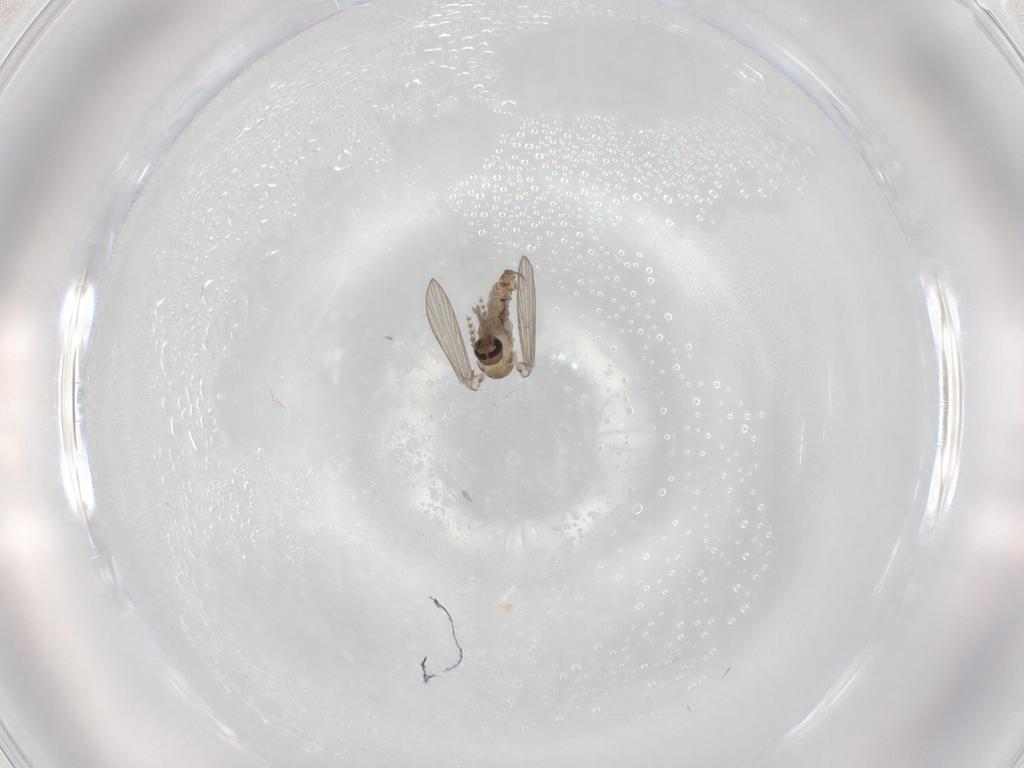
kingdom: Animalia
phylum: Arthropoda
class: Insecta
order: Diptera
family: Psychodidae
